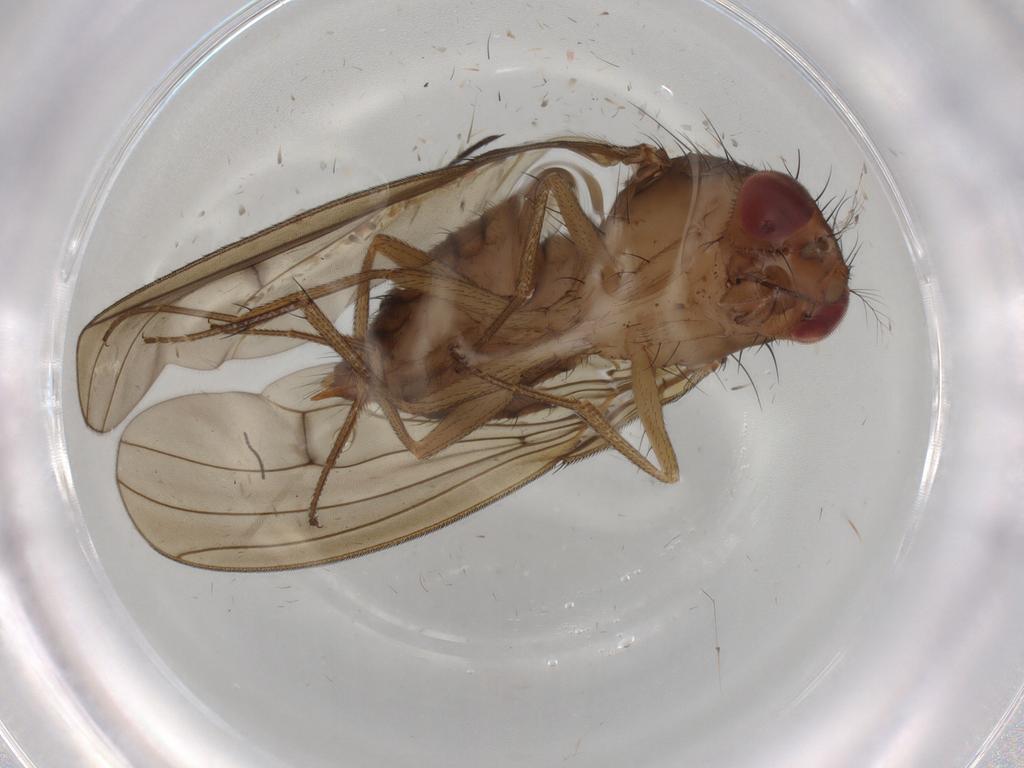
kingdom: Animalia
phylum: Arthropoda
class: Insecta
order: Diptera
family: Drosophilidae
